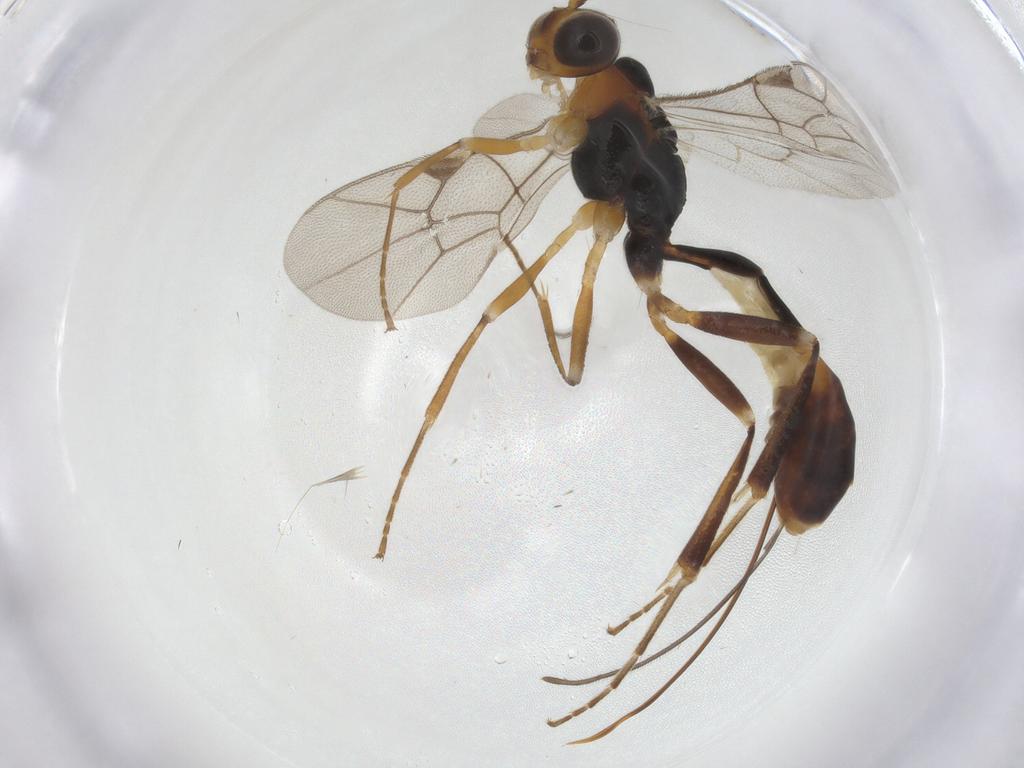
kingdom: Animalia
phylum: Arthropoda
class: Insecta
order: Hymenoptera
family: Ichneumonidae
